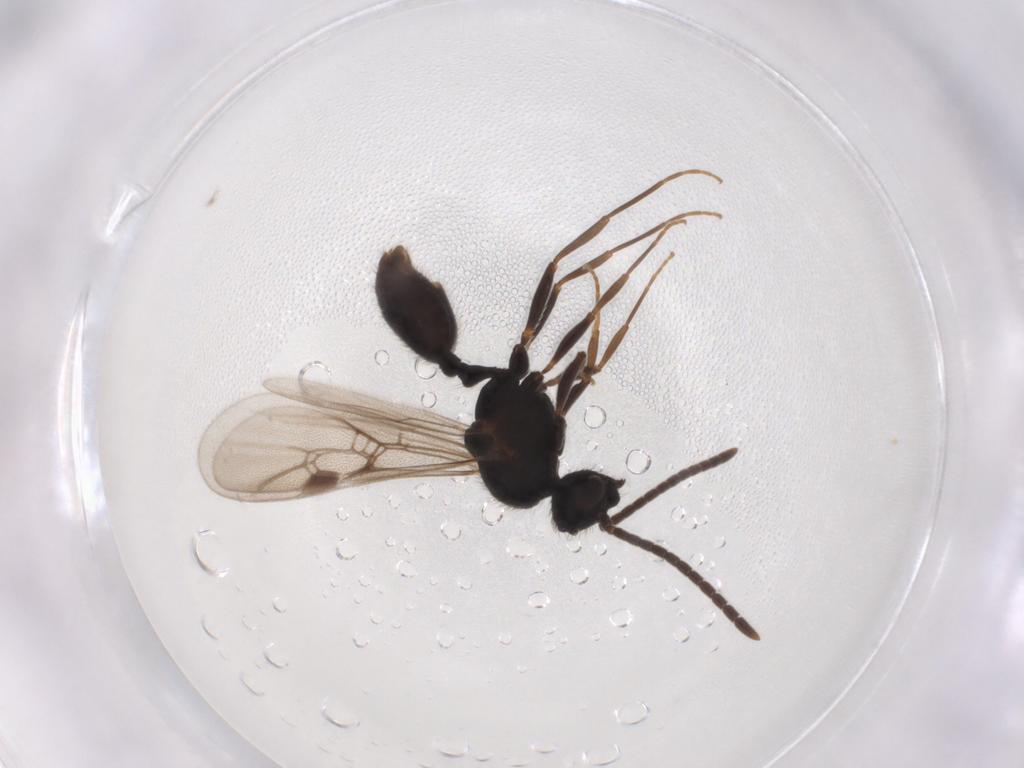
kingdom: Animalia
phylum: Arthropoda
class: Insecta
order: Hymenoptera
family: Formicidae
